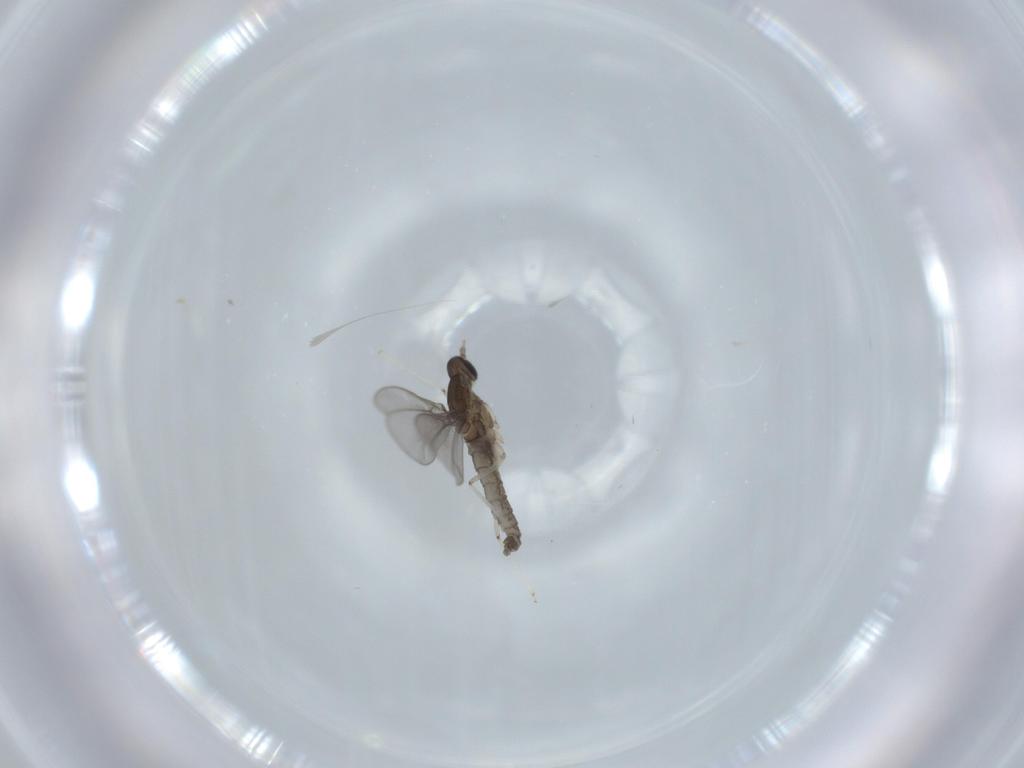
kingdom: Animalia
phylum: Arthropoda
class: Insecta
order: Diptera
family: Cecidomyiidae
